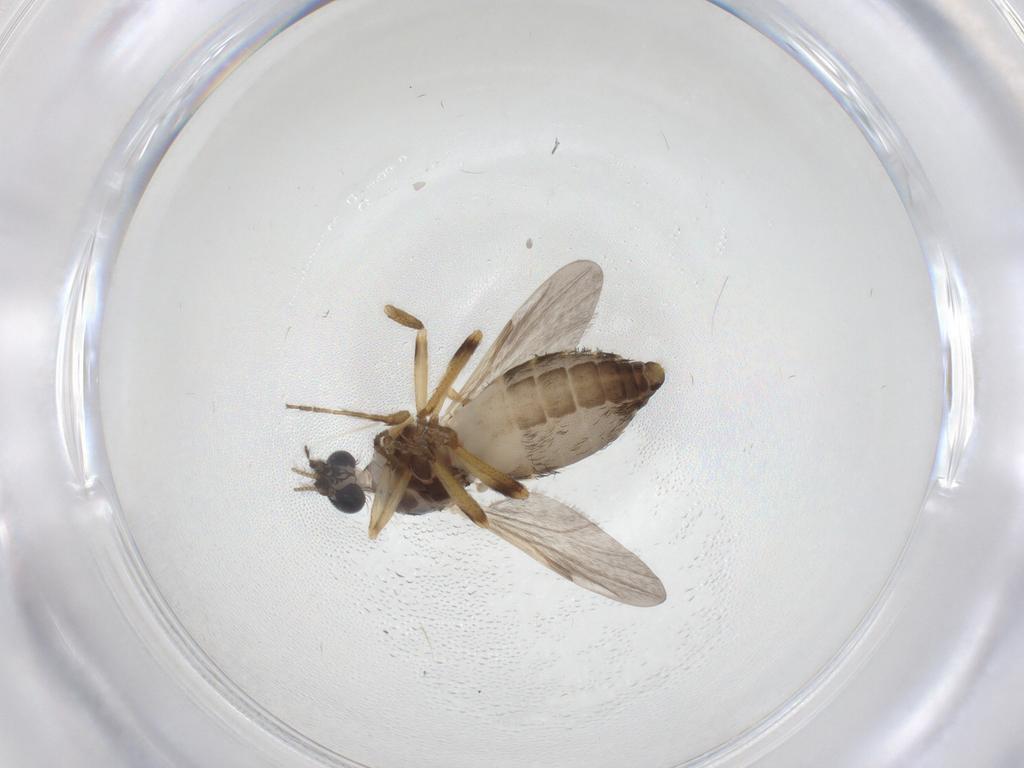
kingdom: Animalia
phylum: Arthropoda
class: Insecta
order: Diptera
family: Ceratopogonidae
